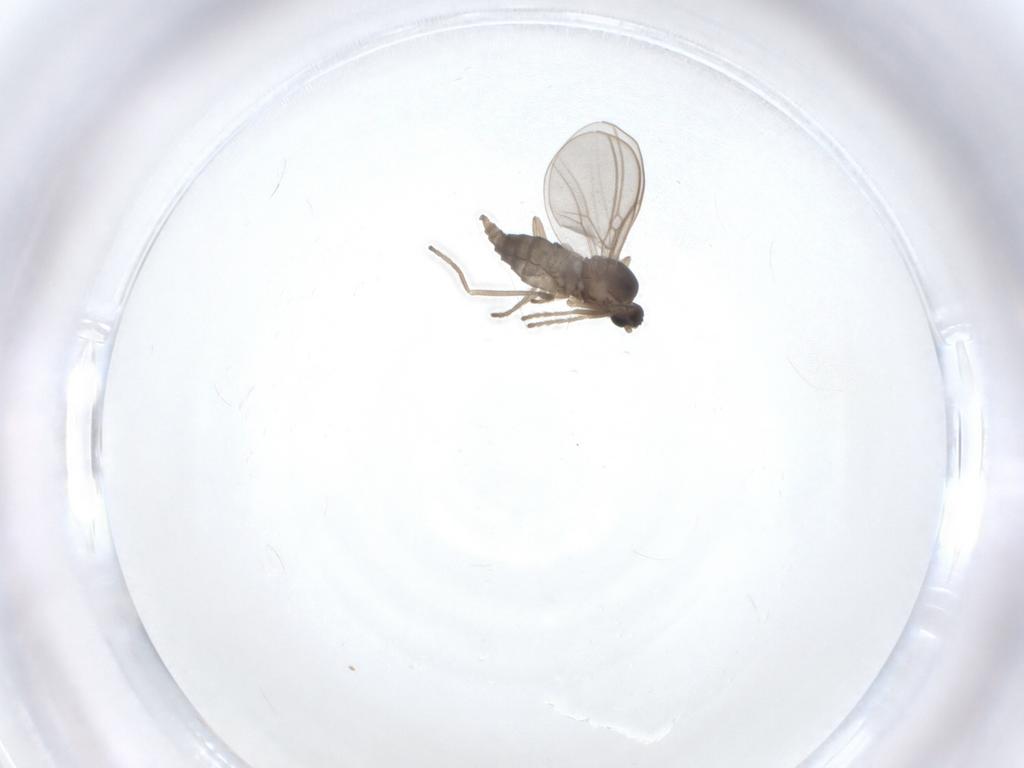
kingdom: Animalia
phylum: Arthropoda
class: Insecta
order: Diptera
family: Cecidomyiidae
